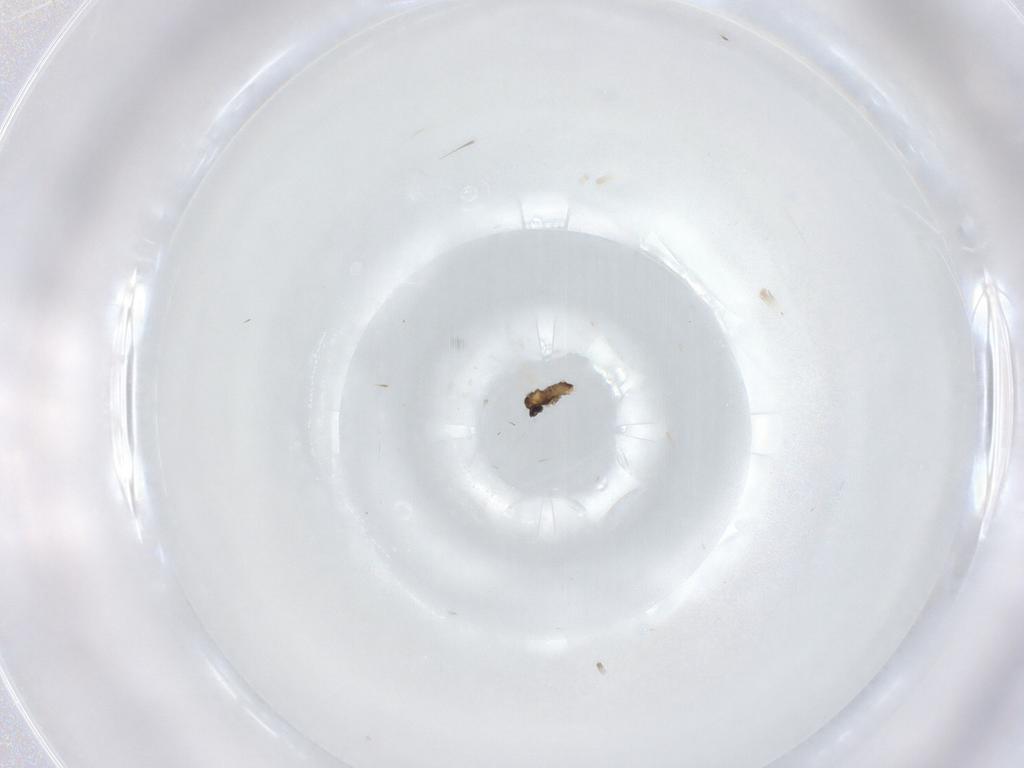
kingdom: Animalia
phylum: Arthropoda
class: Insecta
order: Diptera
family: Cecidomyiidae
